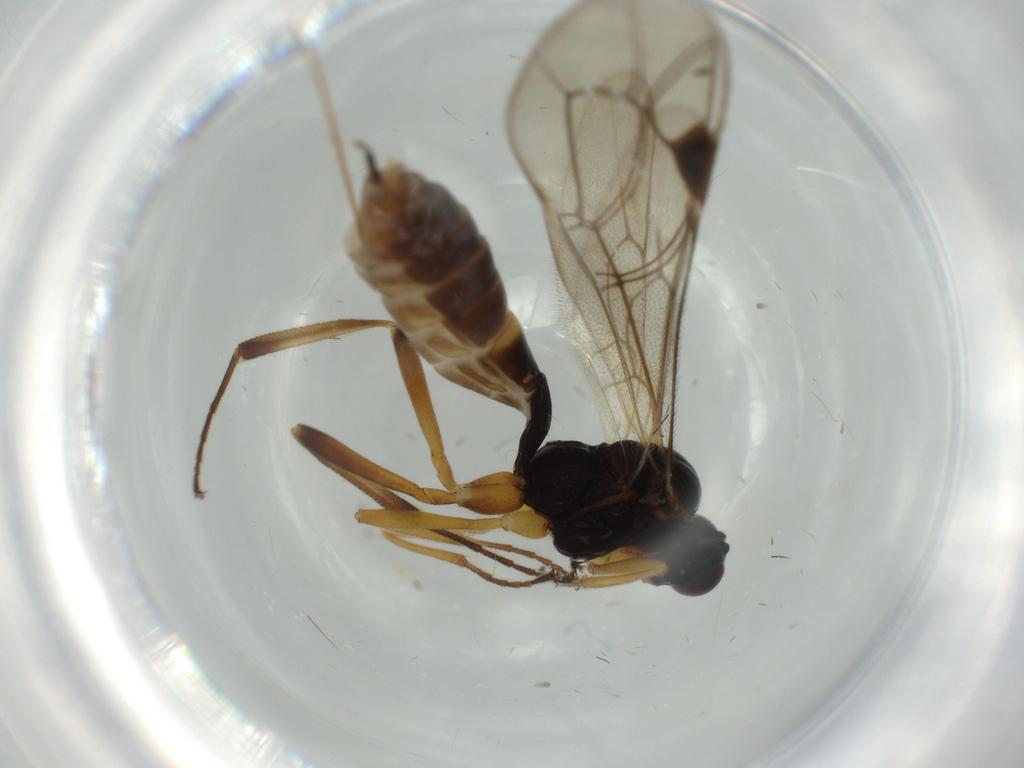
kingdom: Animalia
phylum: Arthropoda
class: Insecta
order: Hymenoptera
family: Ichneumonidae
